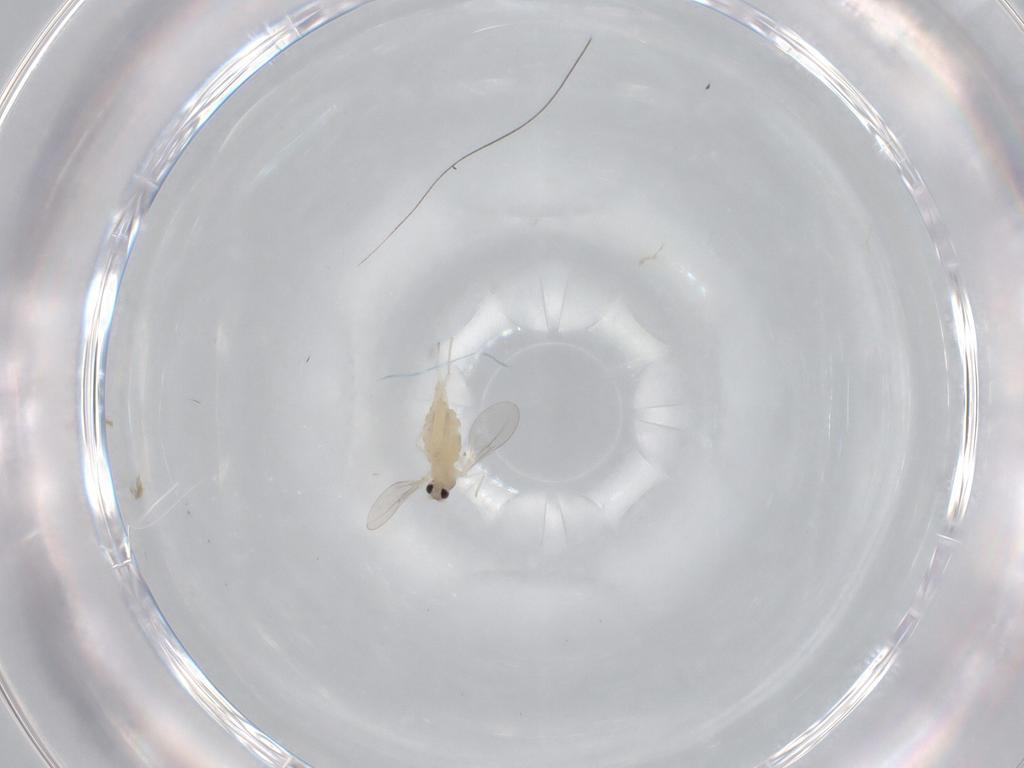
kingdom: Animalia
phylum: Arthropoda
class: Insecta
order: Diptera
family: Cecidomyiidae
